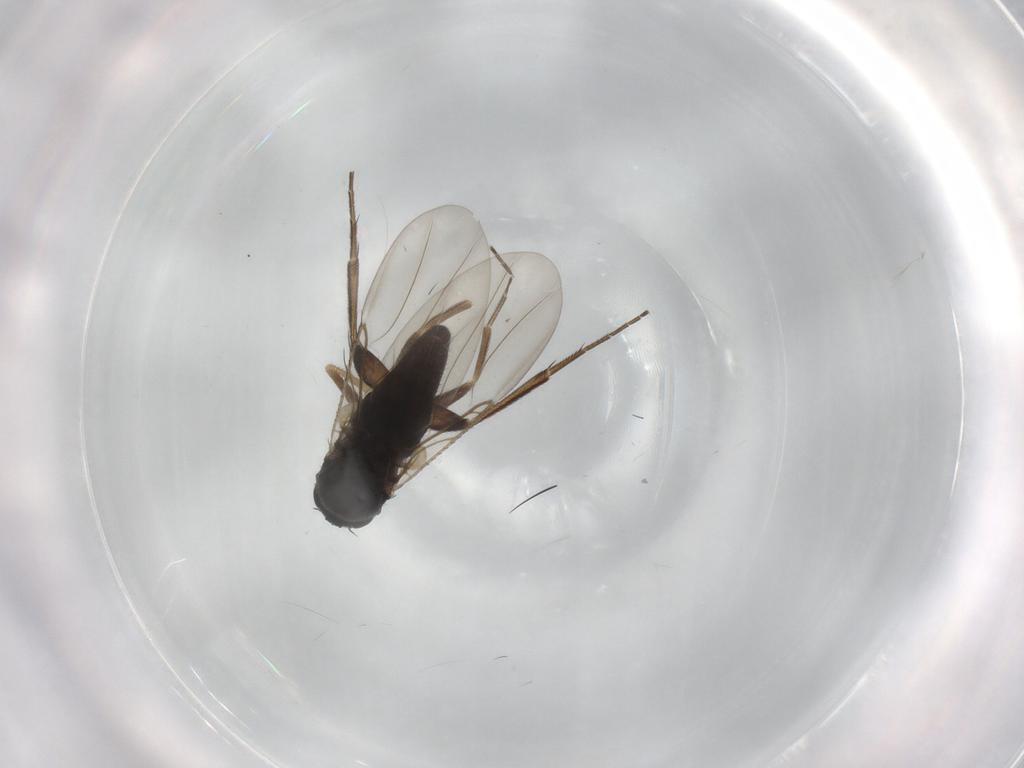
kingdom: Animalia
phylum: Arthropoda
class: Insecta
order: Diptera
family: Sciaridae
